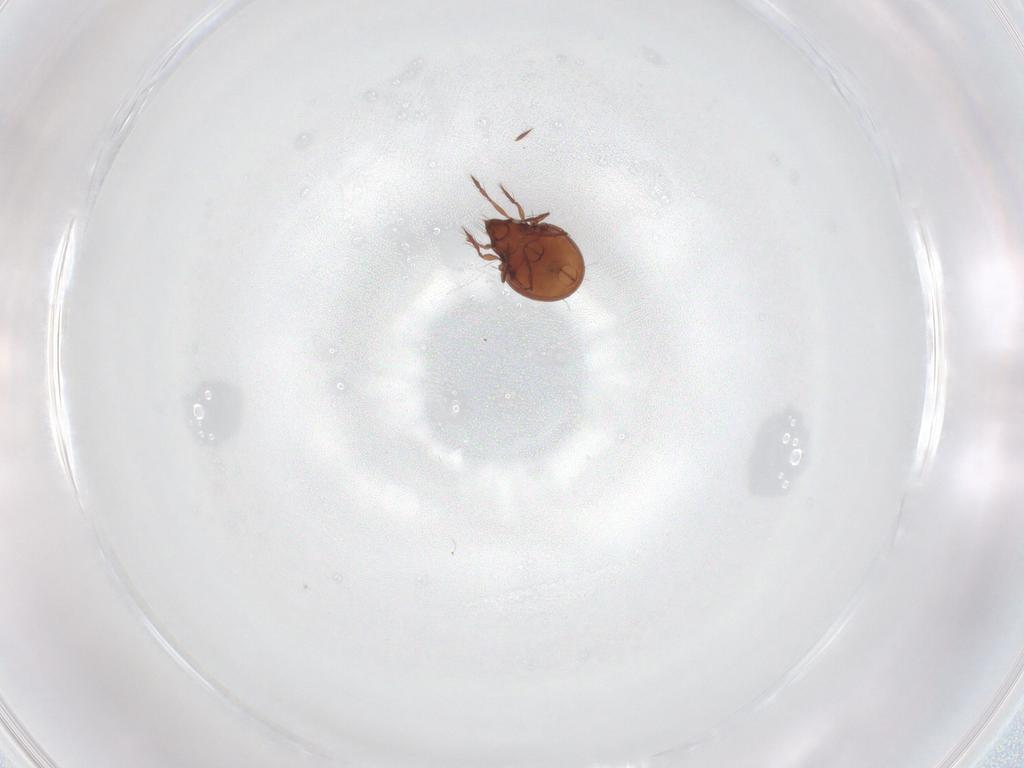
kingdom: Animalia
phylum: Arthropoda
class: Arachnida
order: Sarcoptiformes
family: Ceratoppiidae
